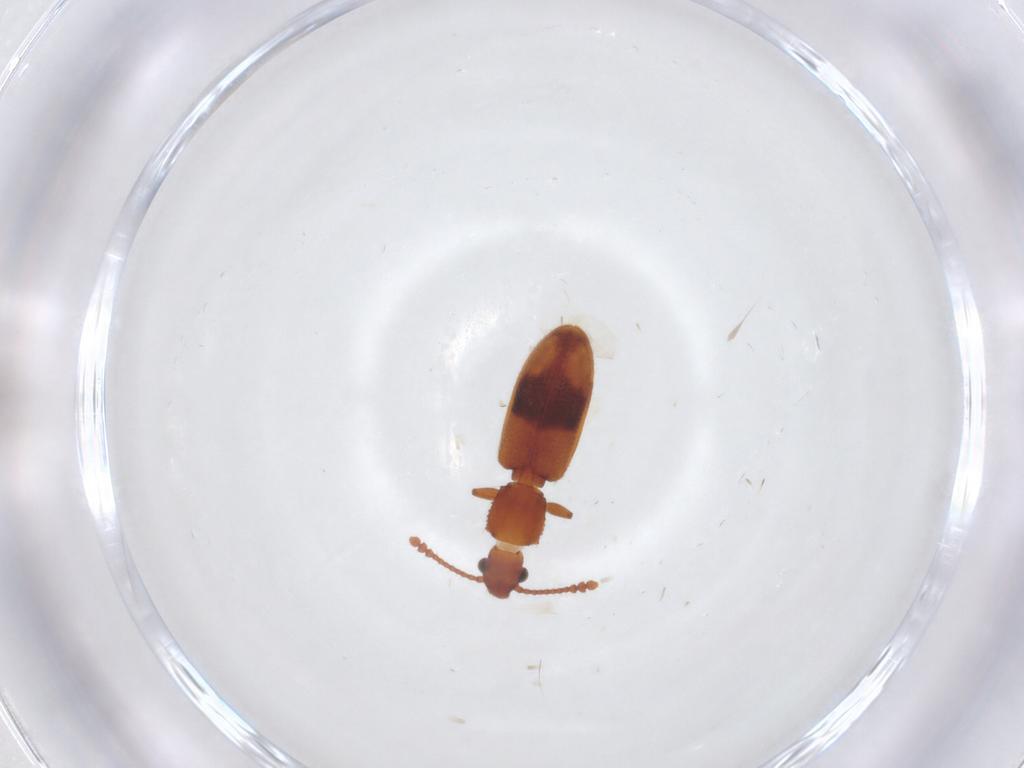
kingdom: Animalia
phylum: Arthropoda
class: Insecta
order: Coleoptera
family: Silvanidae
